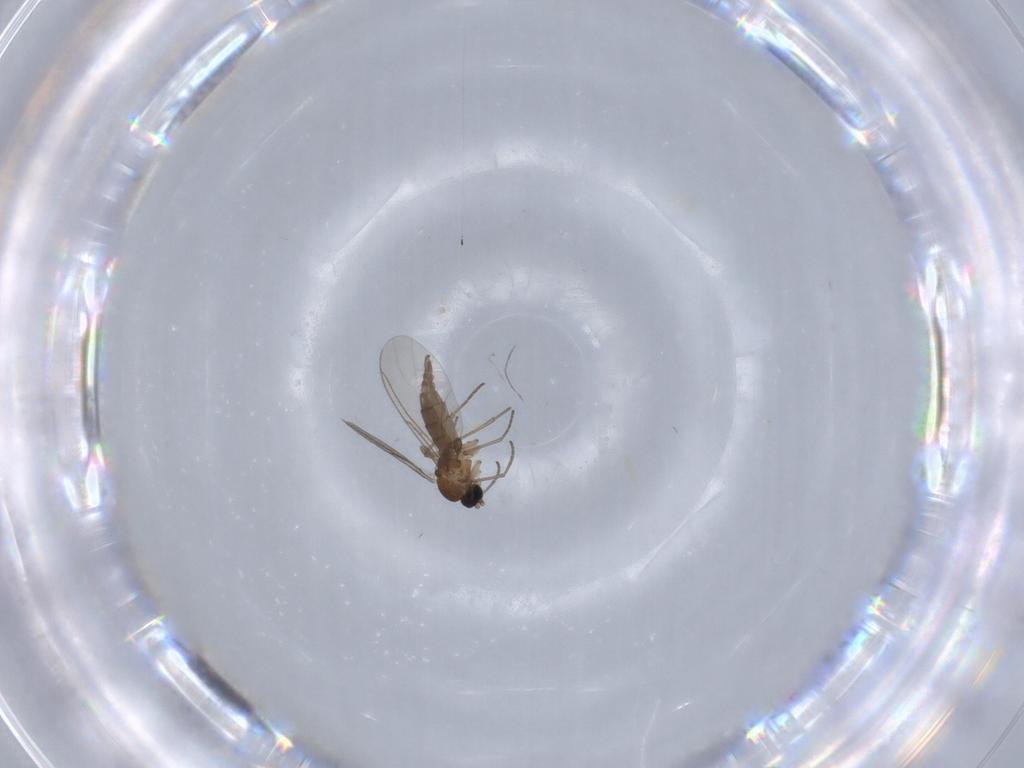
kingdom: Animalia
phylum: Arthropoda
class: Insecta
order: Diptera
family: Sciaridae
